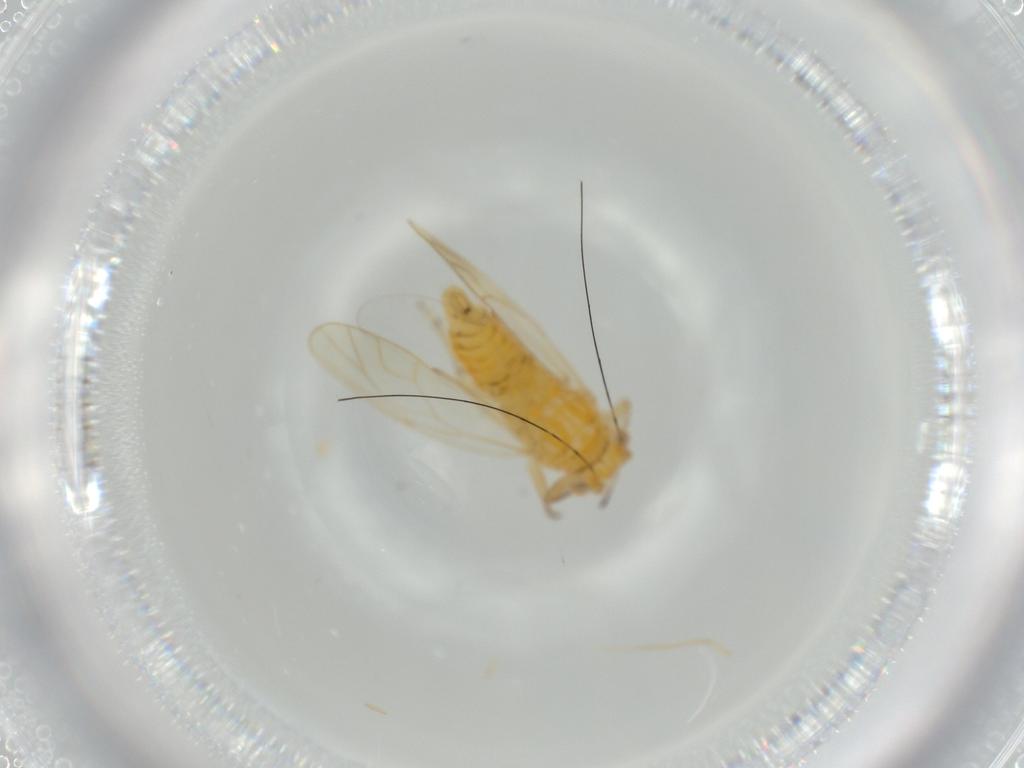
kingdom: Animalia
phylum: Arthropoda
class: Insecta
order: Hemiptera
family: Psyllidae
